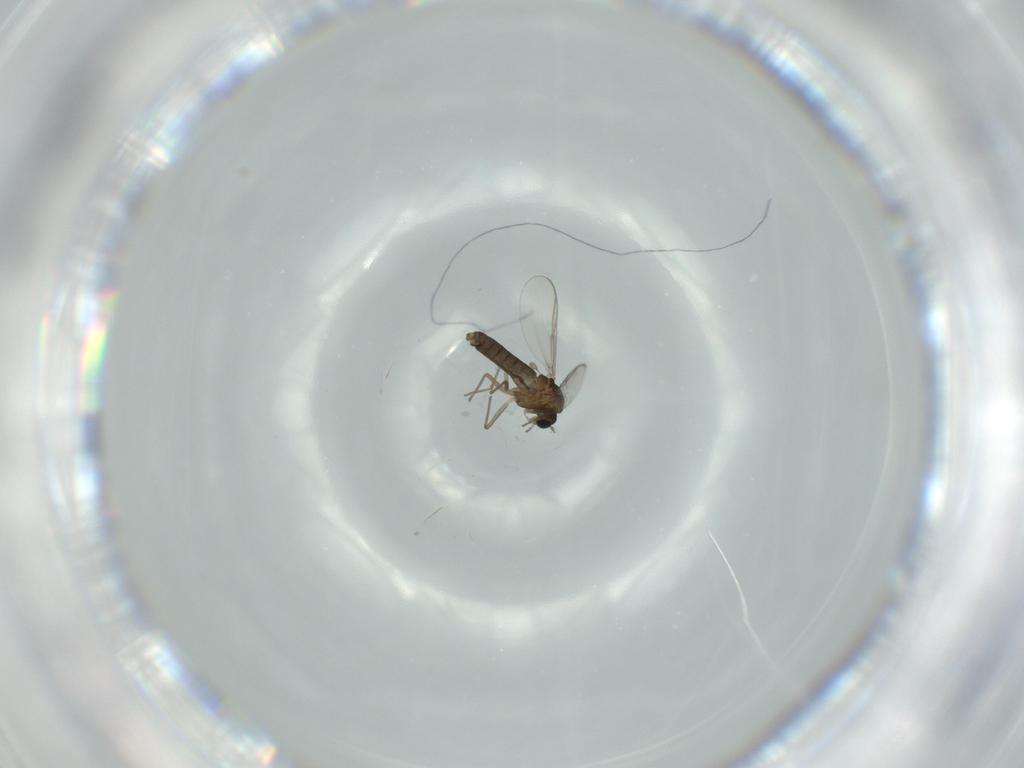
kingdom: Animalia
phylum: Arthropoda
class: Insecta
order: Diptera
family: Chironomidae
